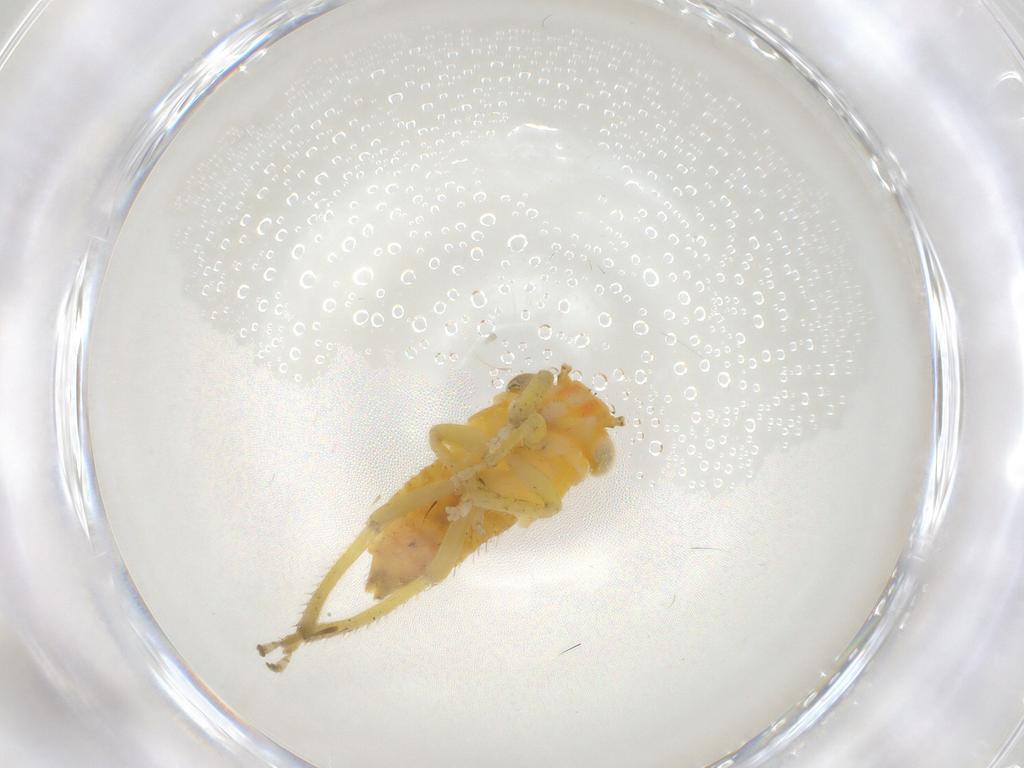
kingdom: Animalia
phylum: Arthropoda
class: Insecta
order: Hemiptera
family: Cicadellidae
